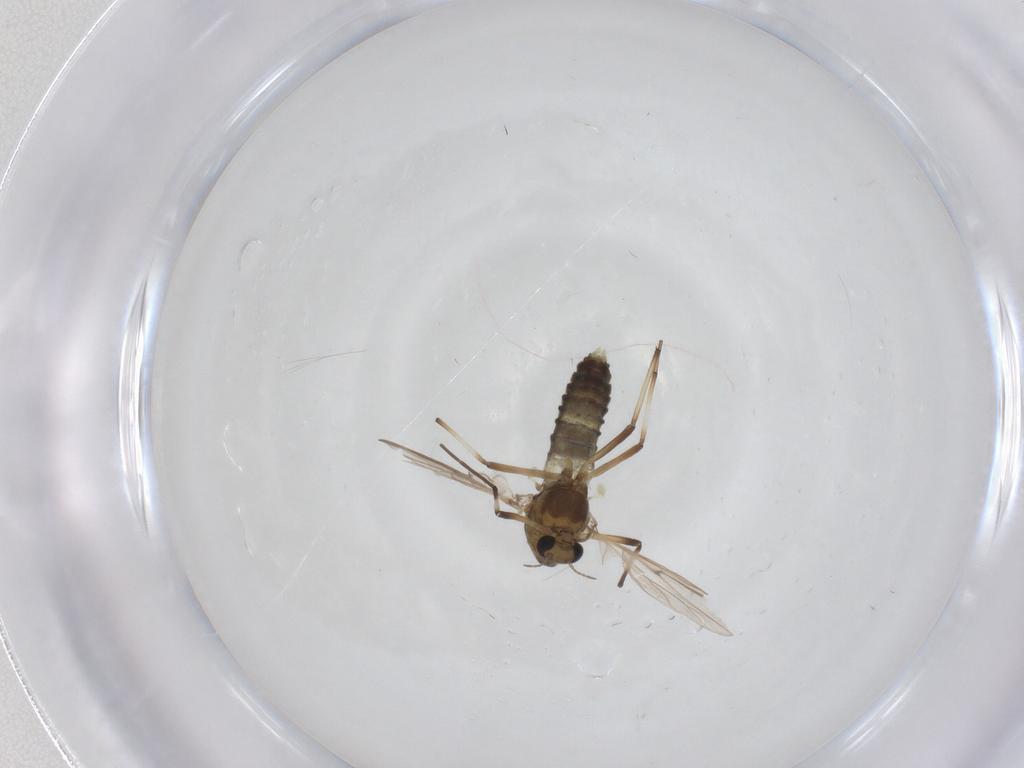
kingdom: Animalia
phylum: Arthropoda
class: Insecta
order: Diptera
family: Chironomidae
